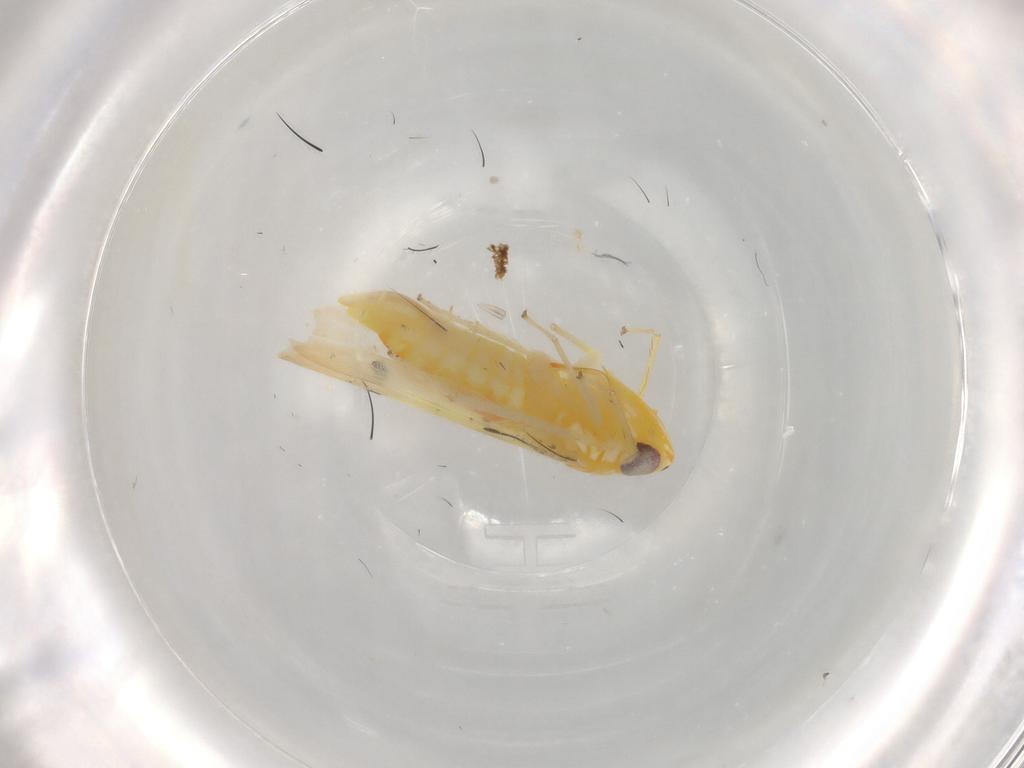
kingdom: Animalia
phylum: Arthropoda
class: Insecta
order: Hemiptera
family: Cicadellidae
